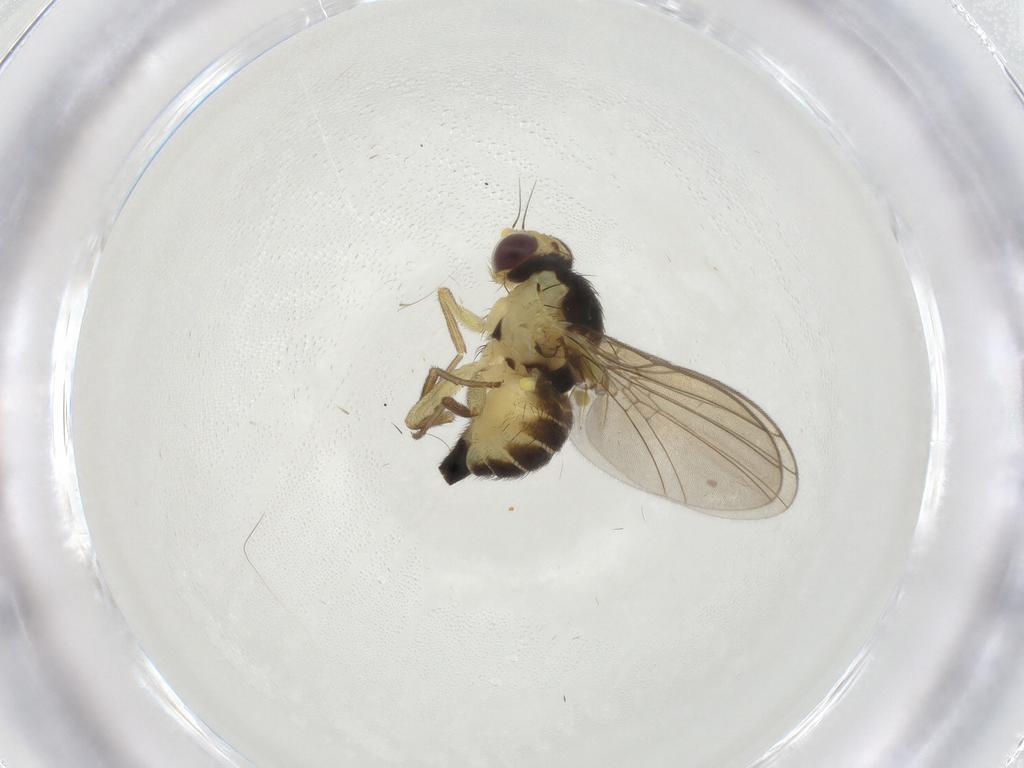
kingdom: Animalia
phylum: Arthropoda
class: Insecta
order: Diptera
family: Agromyzidae
